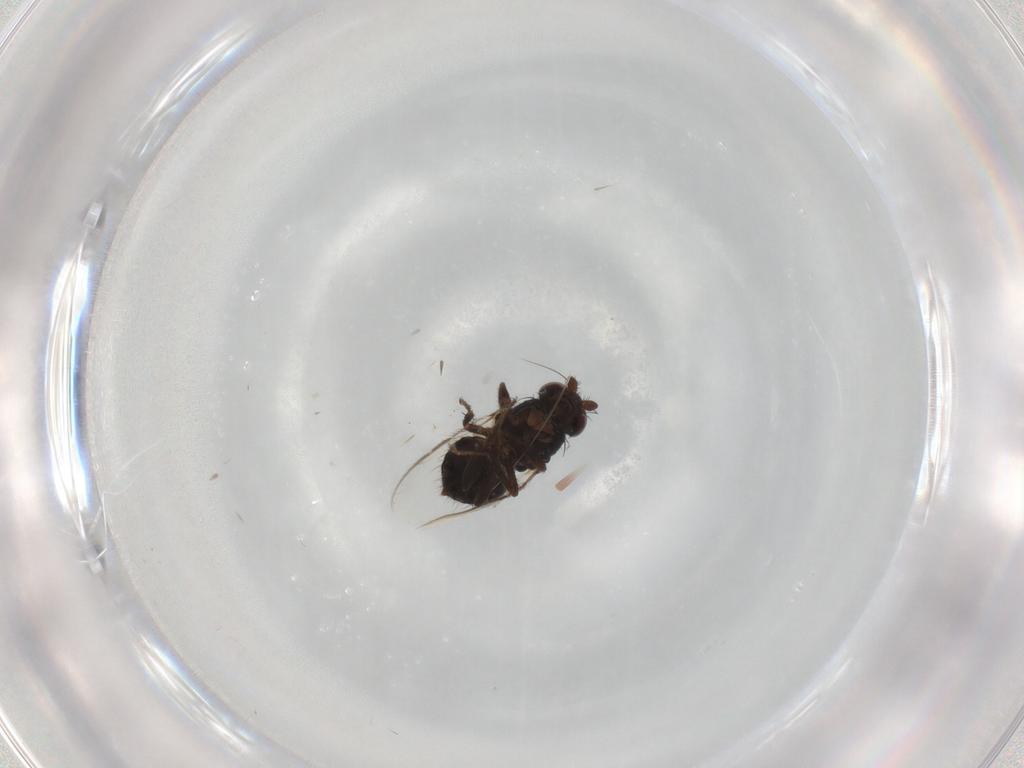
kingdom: Animalia
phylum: Arthropoda
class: Insecta
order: Diptera
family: Sphaeroceridae
